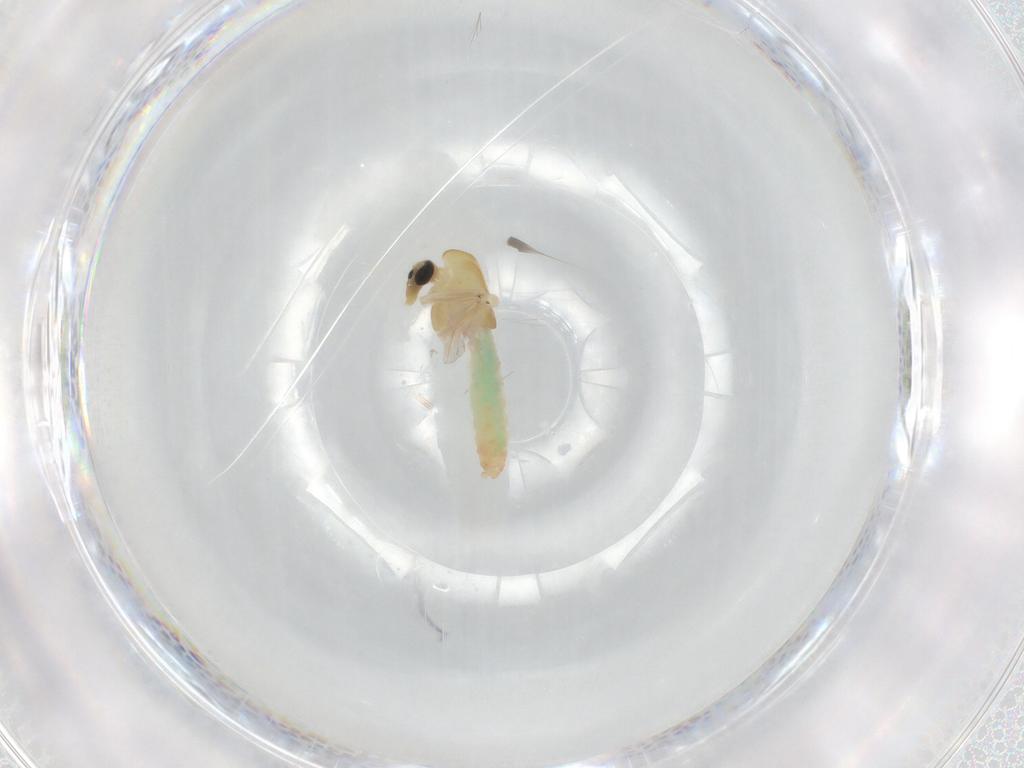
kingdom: Animalia
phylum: Arthropoda
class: Insecta
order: Diptera
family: Chironomidae
